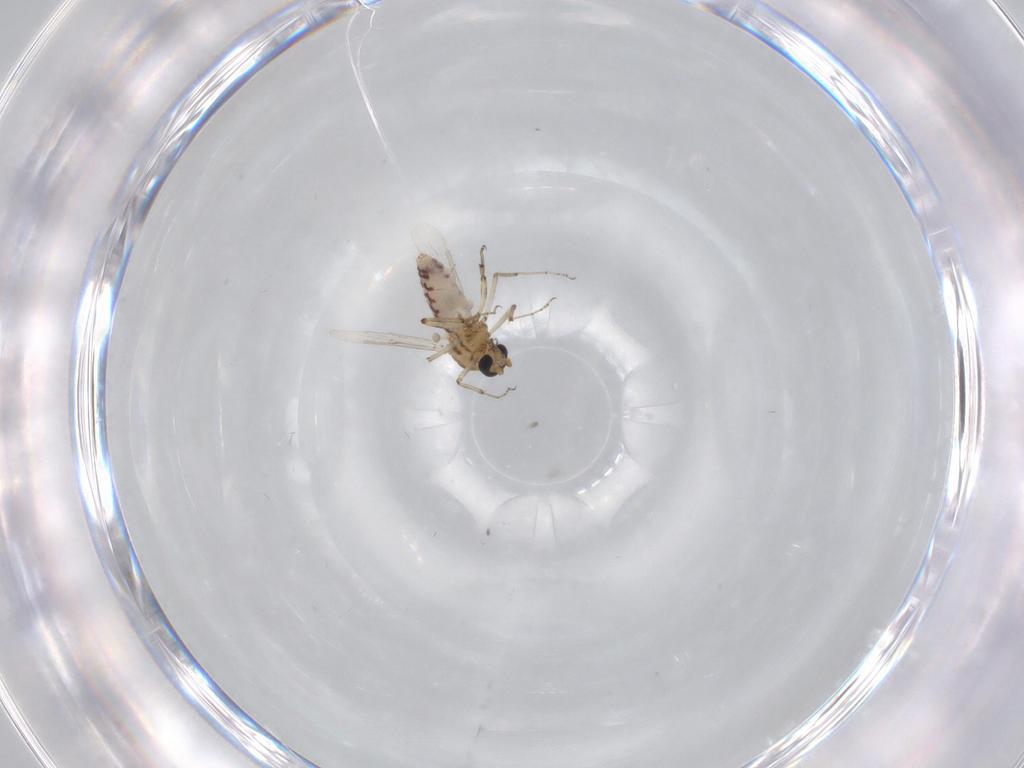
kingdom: Animalia
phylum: Arthropoda
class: Insecta
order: Diptera
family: Ceratopogonidae
